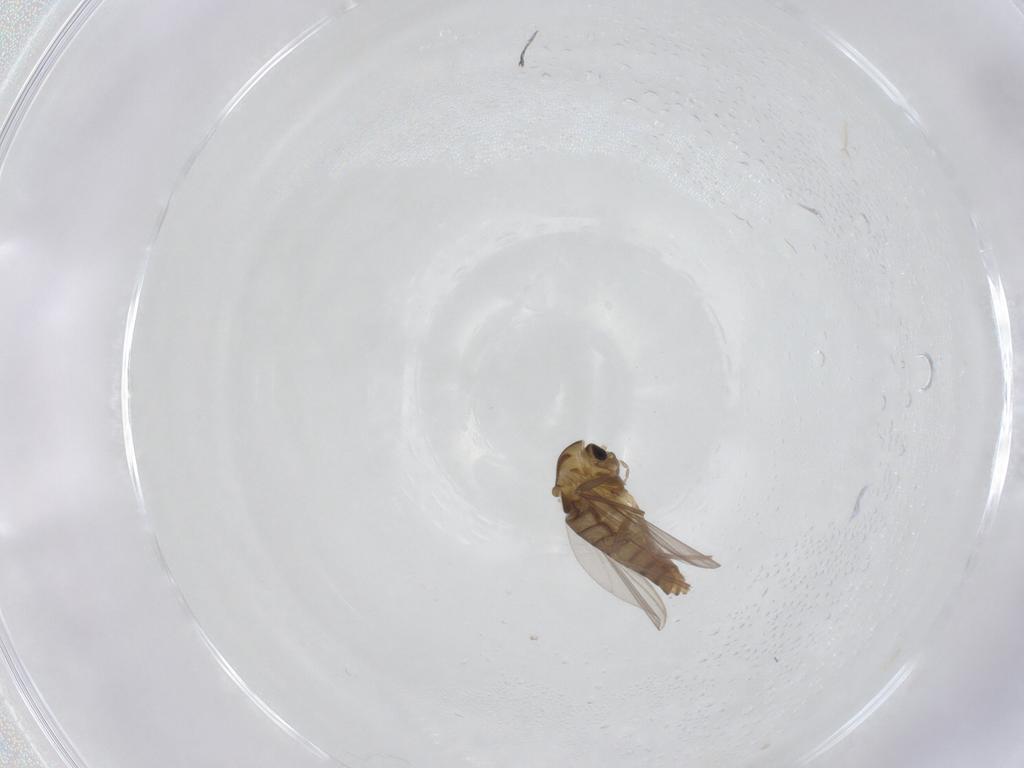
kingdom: Animalia
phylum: Arthropoda
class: Insecta
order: Diptera
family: Chironomidae
